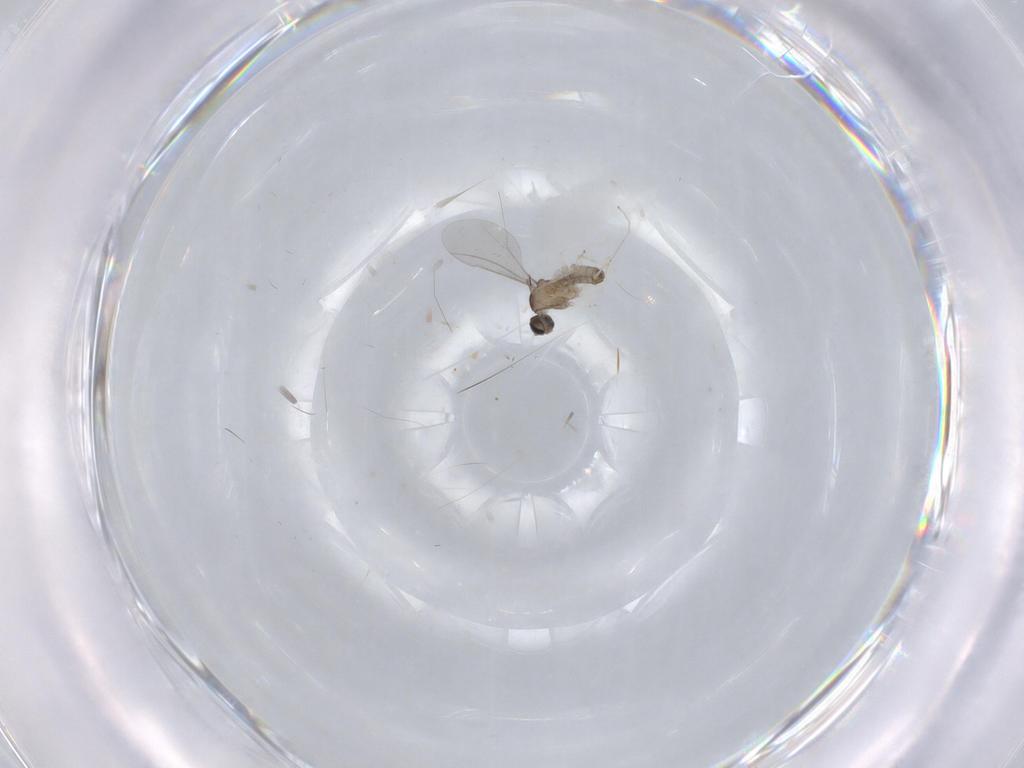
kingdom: Animalia
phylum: Arthropoda
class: Insecta
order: Diptera
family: Cecidomyiidae
